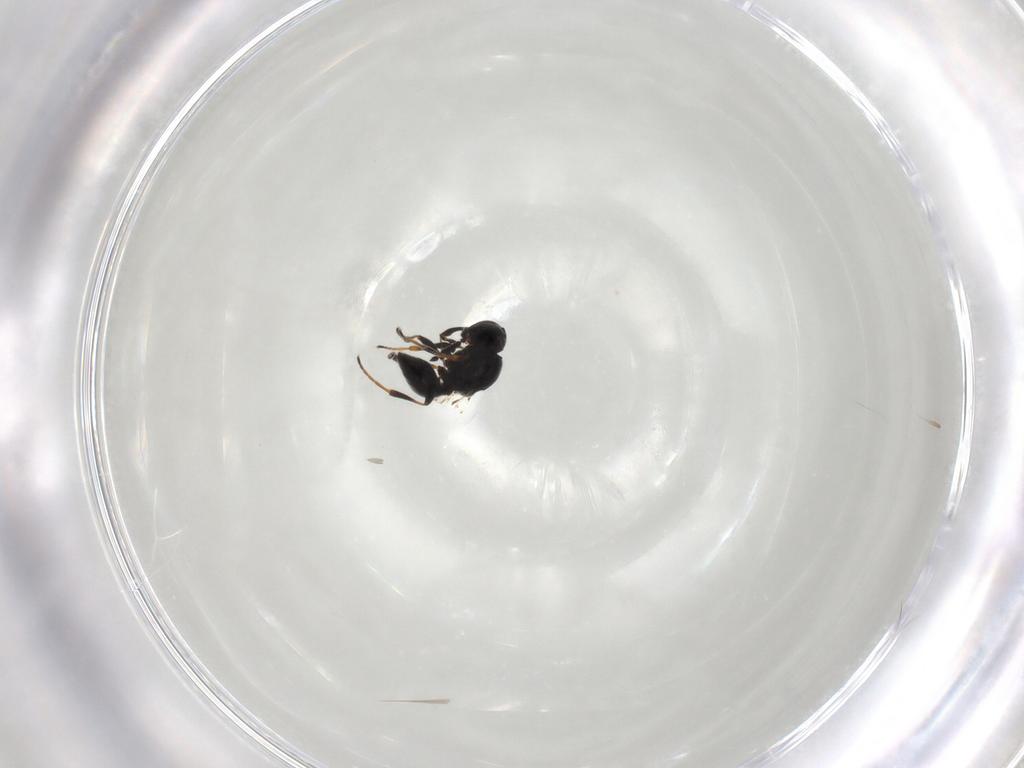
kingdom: Animalia
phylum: Arthropoda
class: Insecta
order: Hymenoptera
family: Platygastridae
